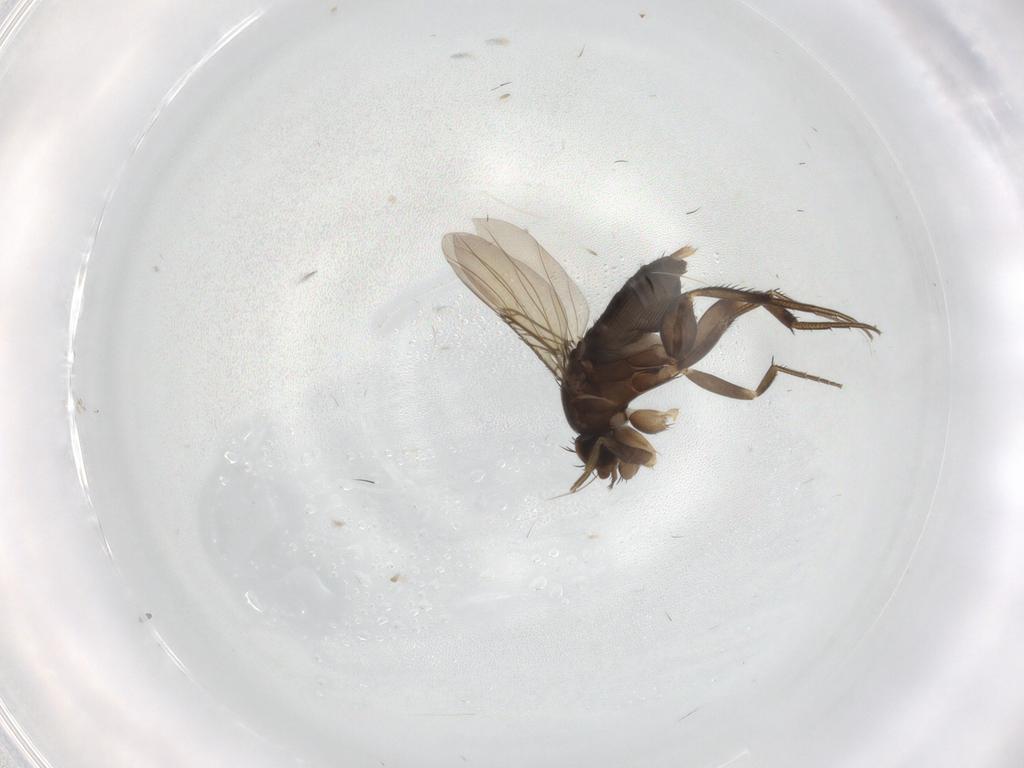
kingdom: Animalia
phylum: Arthropoda
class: Insecta
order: Diptera
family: Phoridae
